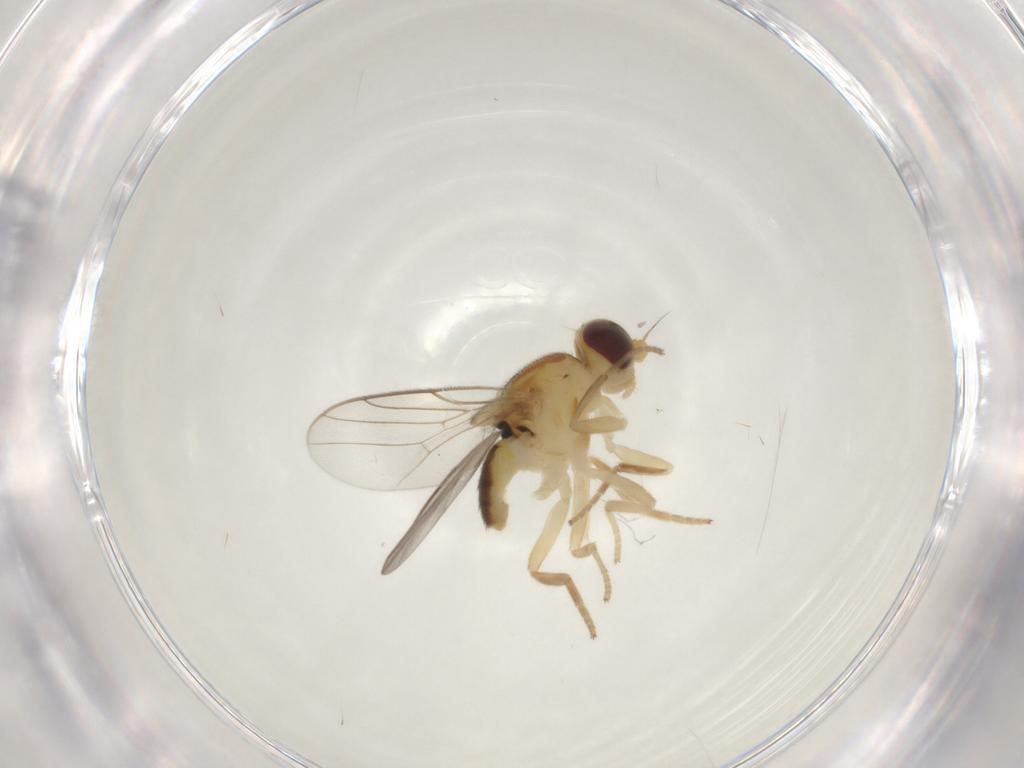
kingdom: Animalia
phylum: Arthropoda
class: Insecta
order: Diptera
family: Chloropidae
